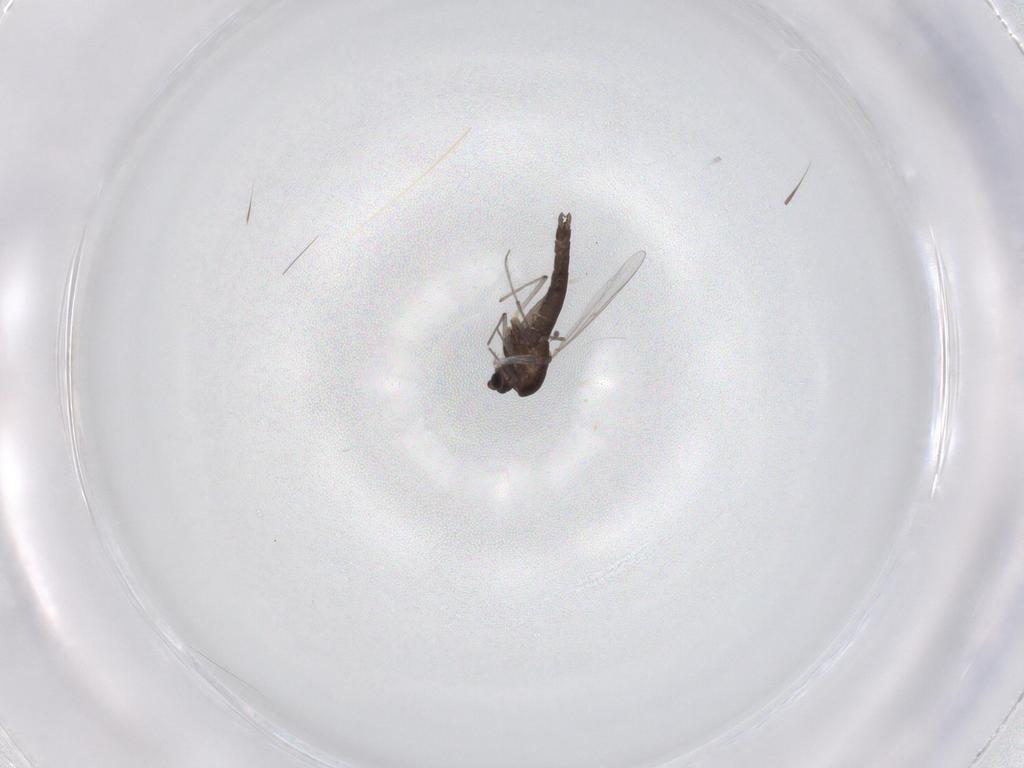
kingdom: Animalia
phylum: Arthropoda
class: Insecta
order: Diptera
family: Chironomidae
